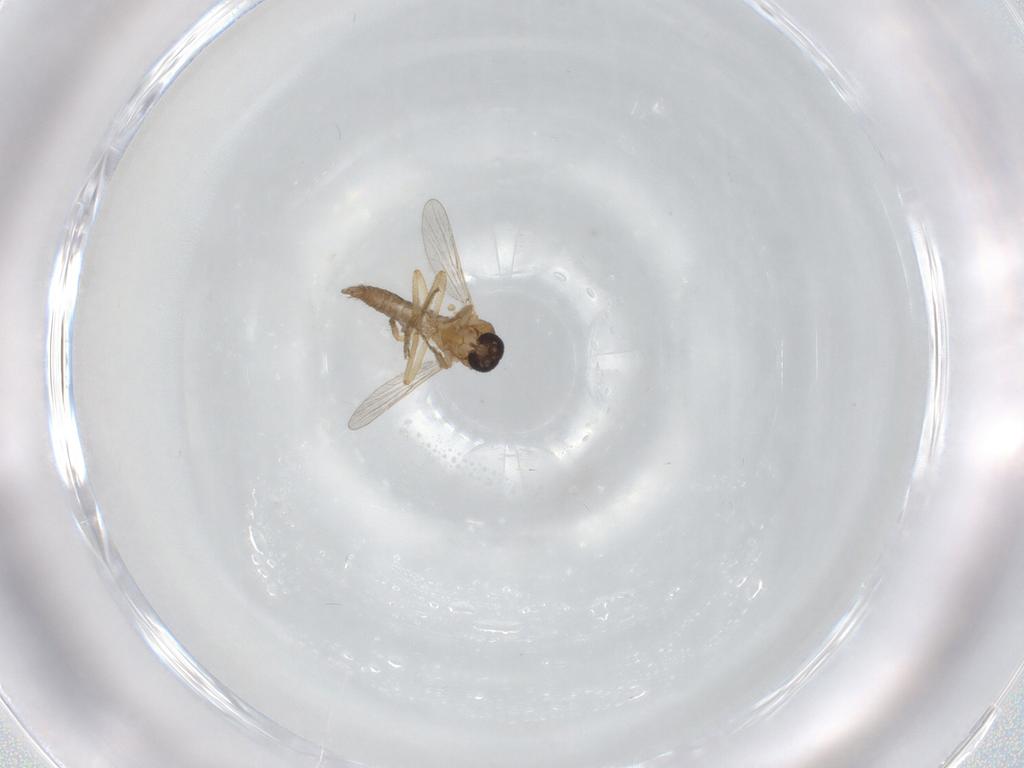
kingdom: Animalia
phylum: Arthropoda
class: Insecta
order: Diptera
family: Ceratopogonidae
